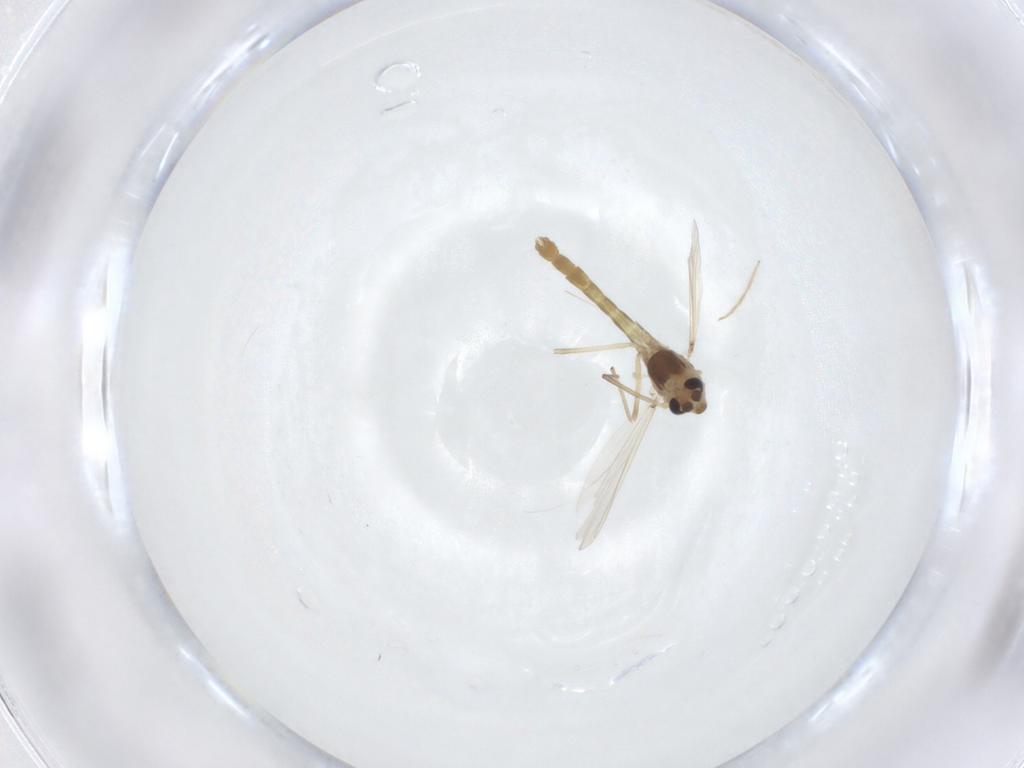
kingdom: Animalia
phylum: Arthropoda
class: Insecta
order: Diptera
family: Chironomidae
